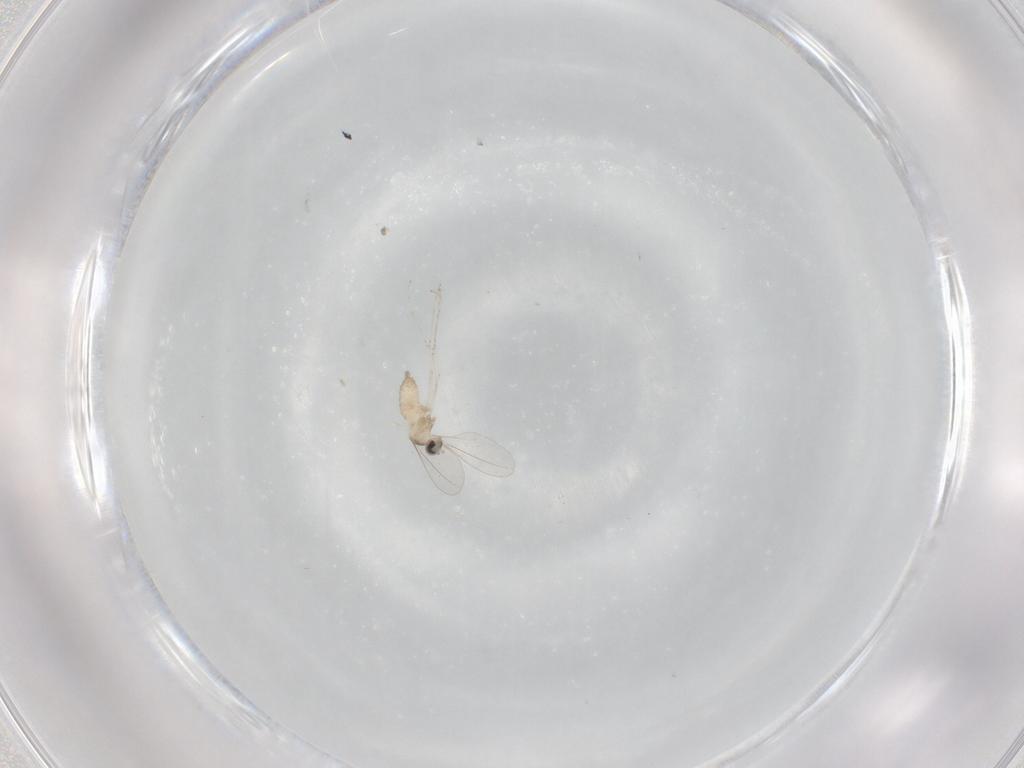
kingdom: Animalia
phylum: Arthropoda
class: Insecta
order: Diptera
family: Cecidomyiidae
